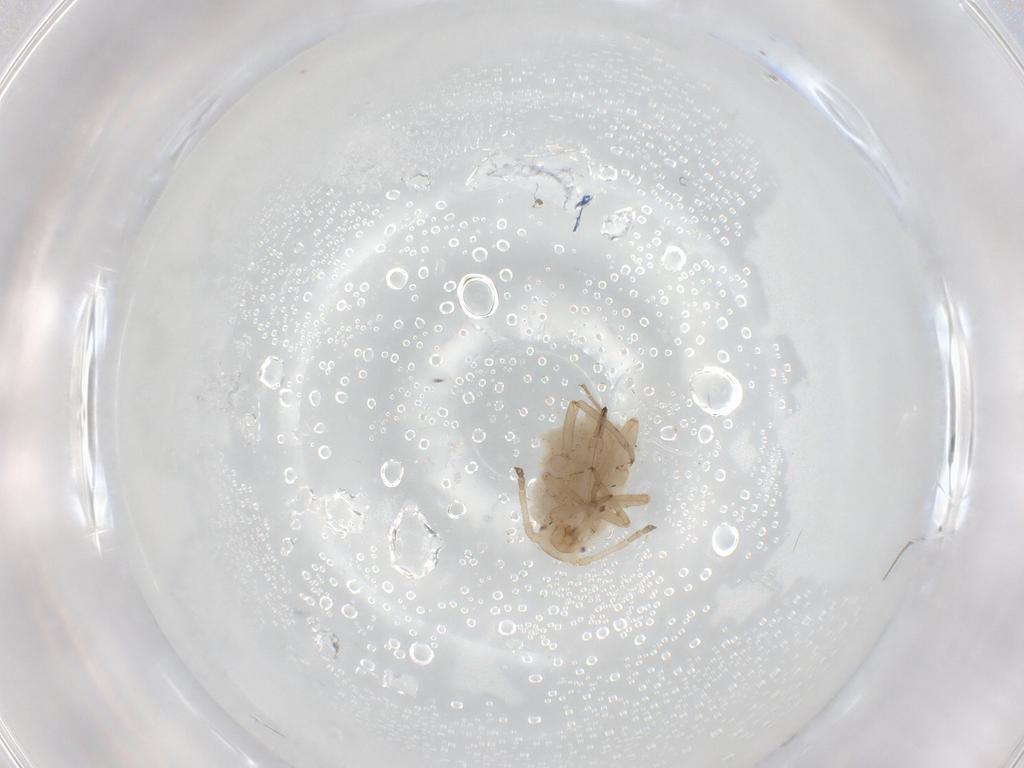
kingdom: Animalia
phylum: Arthropoda
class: Insecta
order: Hemiptera
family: Aphididae
